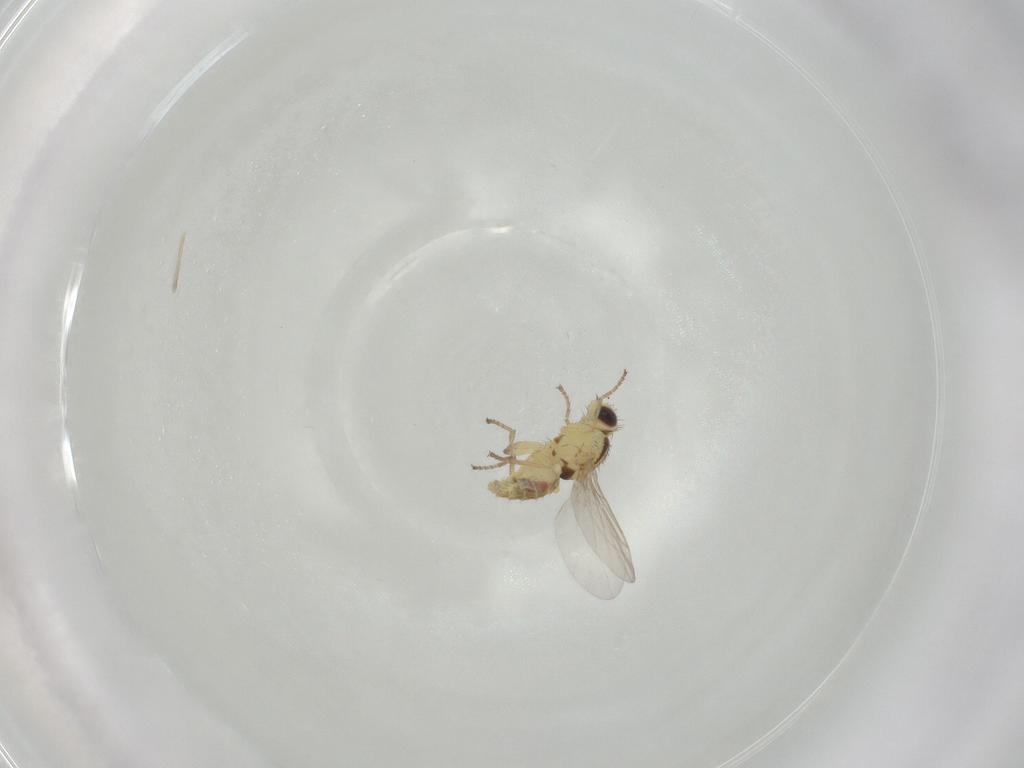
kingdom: Animalia
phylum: Arthropoda
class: Insecta
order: Diptera
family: Agromyzidae
